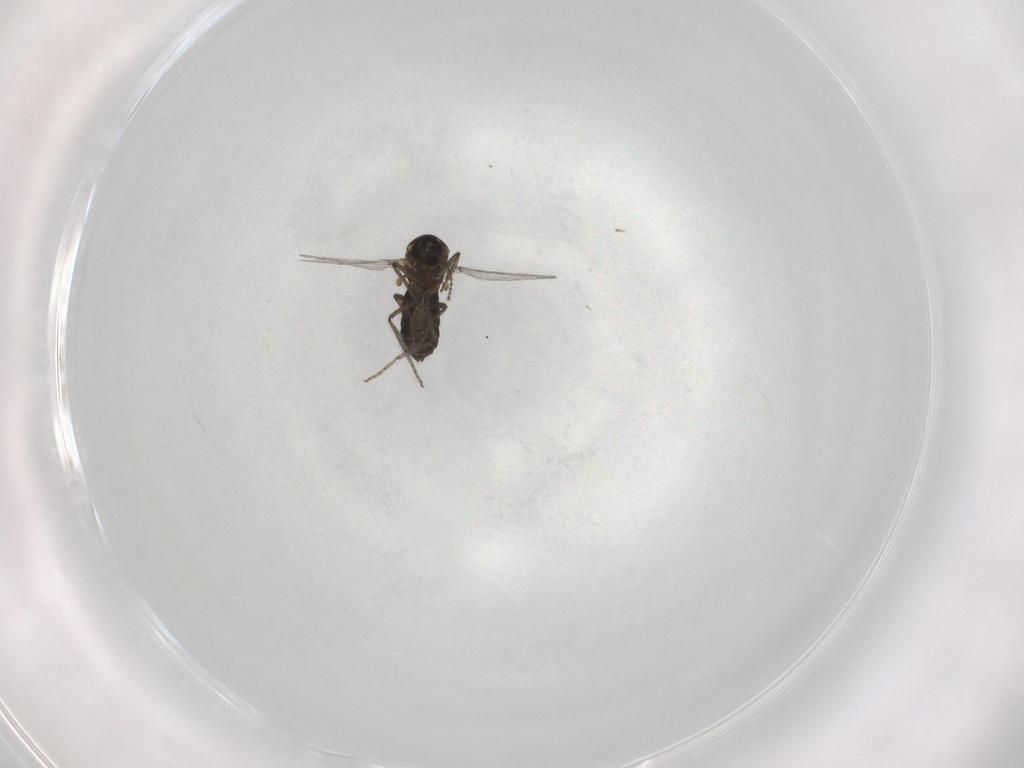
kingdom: Animalia
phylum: Arthropoda
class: Insecta
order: Diptera
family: Ceratopogonidae
